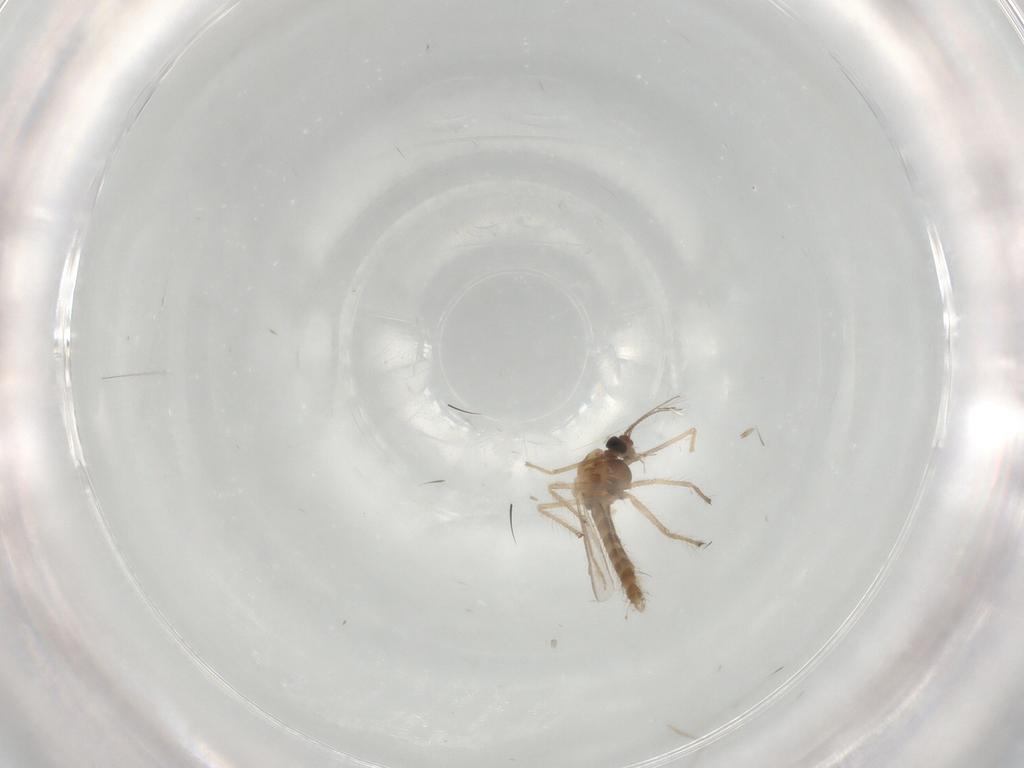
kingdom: Animalia
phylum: Arthropoda
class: Insecta
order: Diptera
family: Chironomidae
